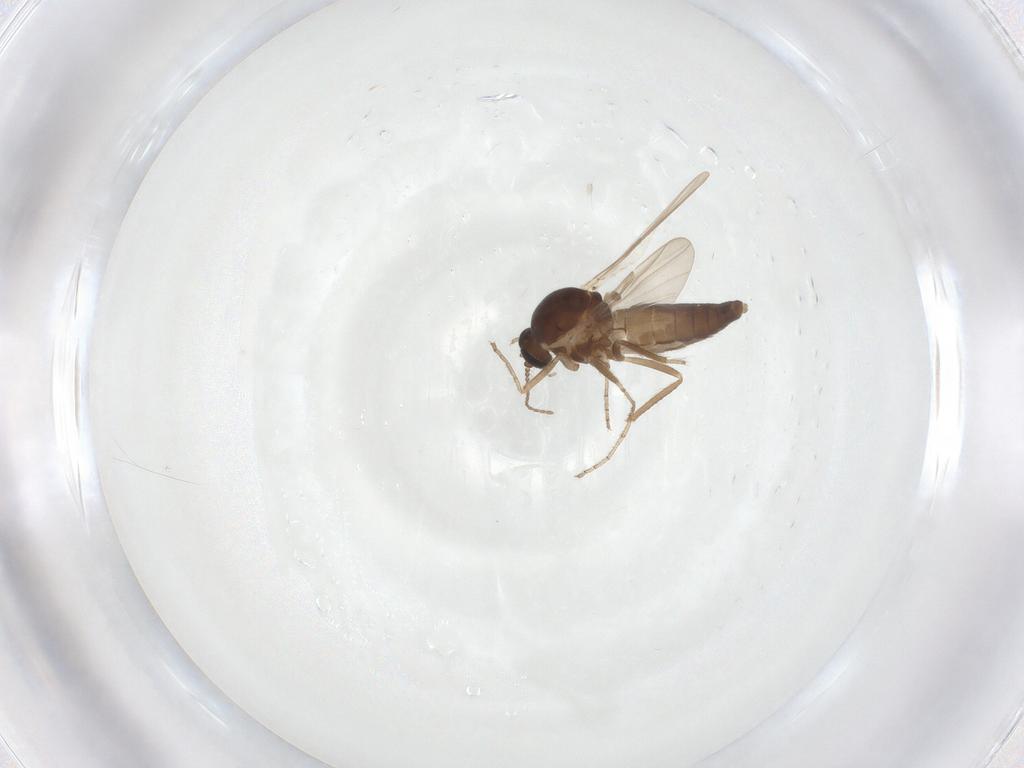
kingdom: Animalia
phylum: Arthropoda
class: Insecta
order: Diptera
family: Ceratopogonidae
